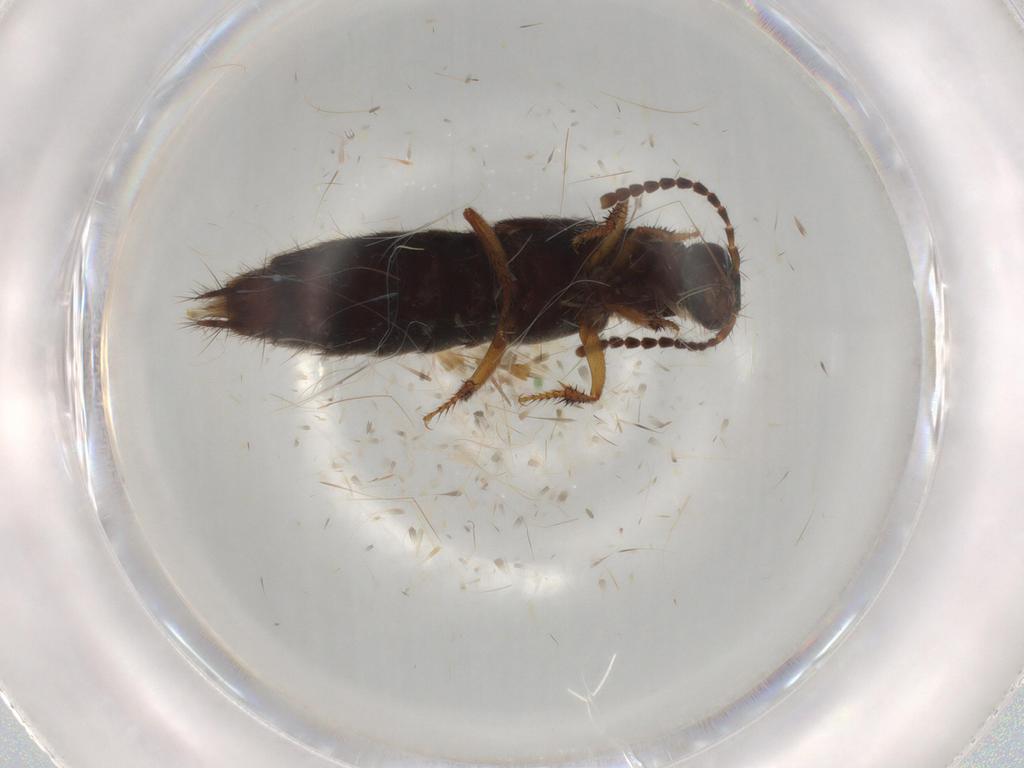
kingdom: Animalia
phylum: Arthropoda
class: Insecta
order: Coleoptera
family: Staphylinidae
